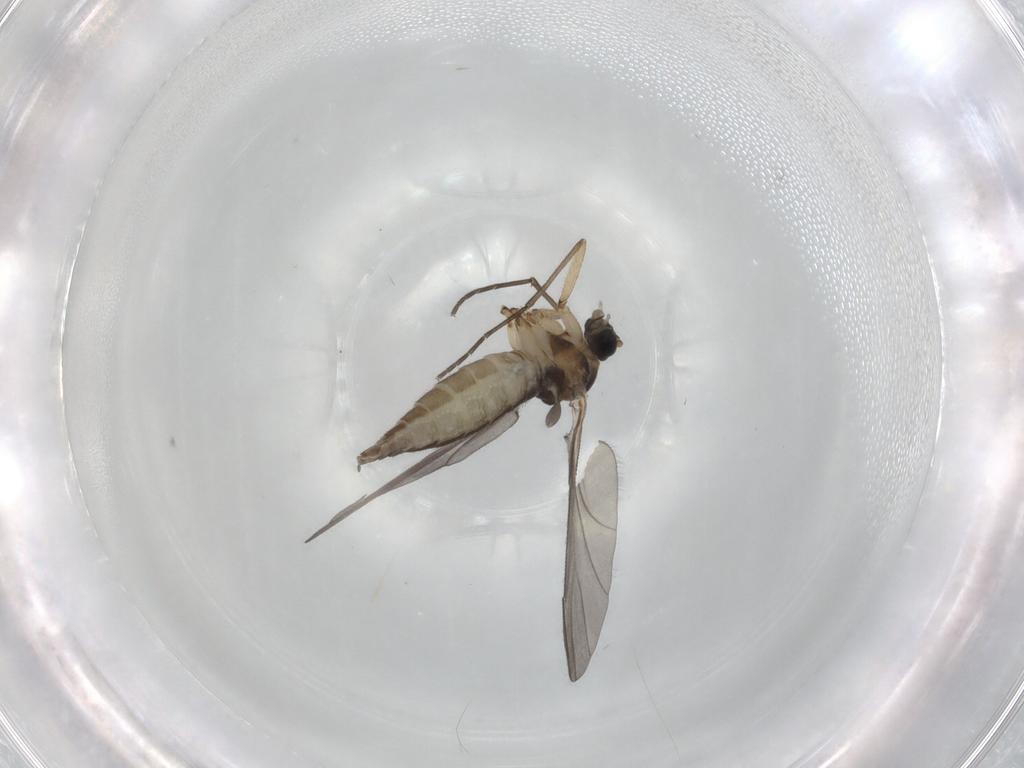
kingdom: Animalia
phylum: Arthropoda
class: Insecta
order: Diptera
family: Sciaridae
